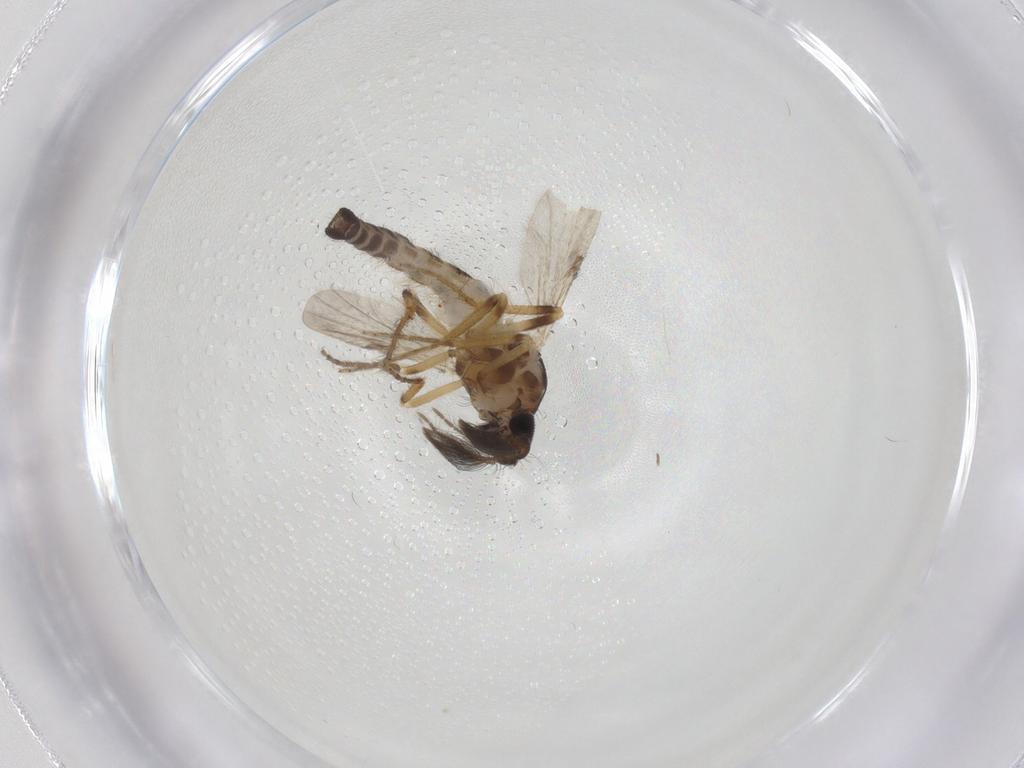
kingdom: Animalia
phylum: Arthropoda
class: Insecta
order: Diptera
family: Ceratopogonidae
